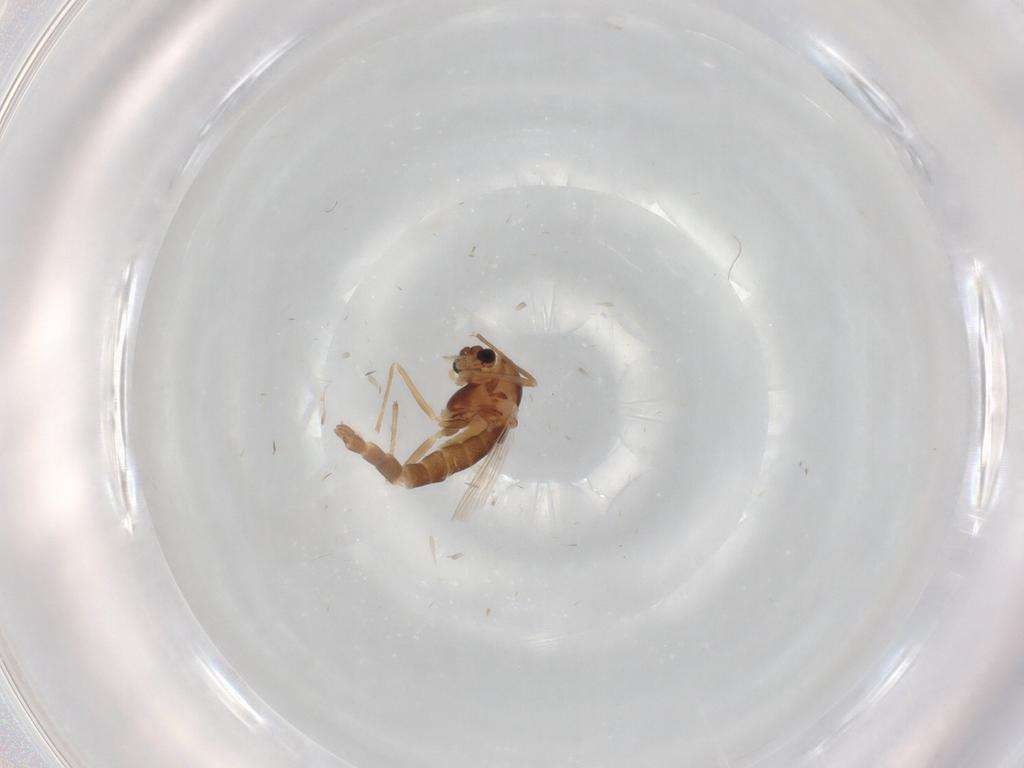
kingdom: Animalia
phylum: Arthropoda
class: Insecta
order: Diptera
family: Chironomidae
